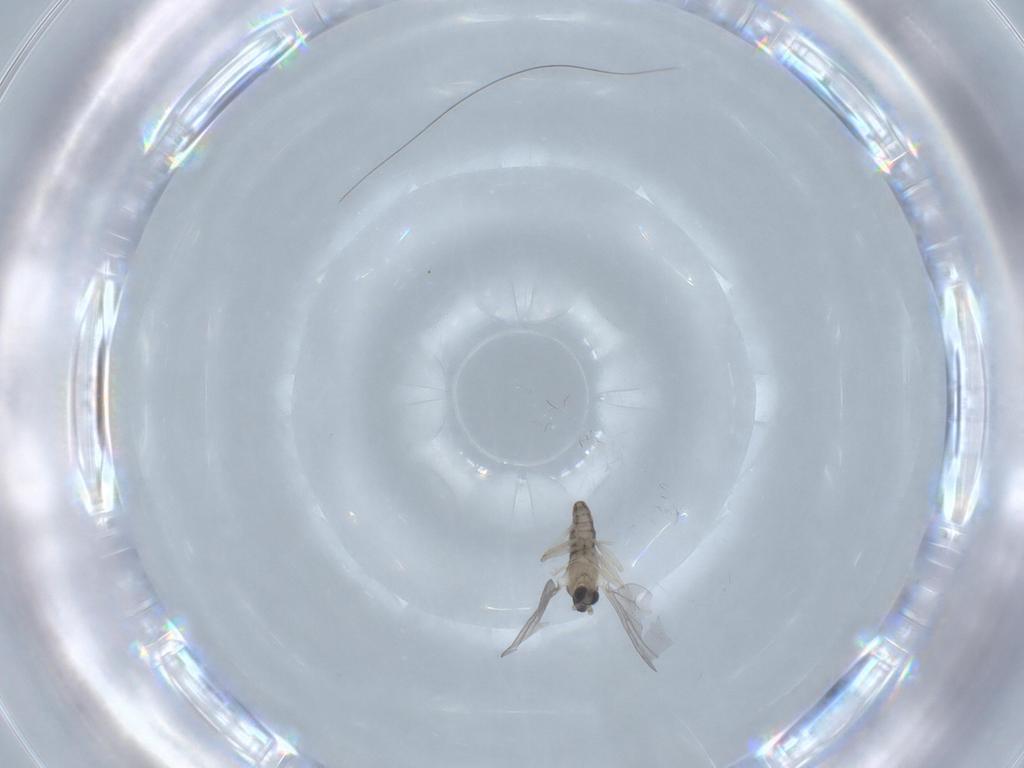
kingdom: Animalia
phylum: Arthropoda
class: Insecta
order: Diptera
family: Cecidomyiidae
